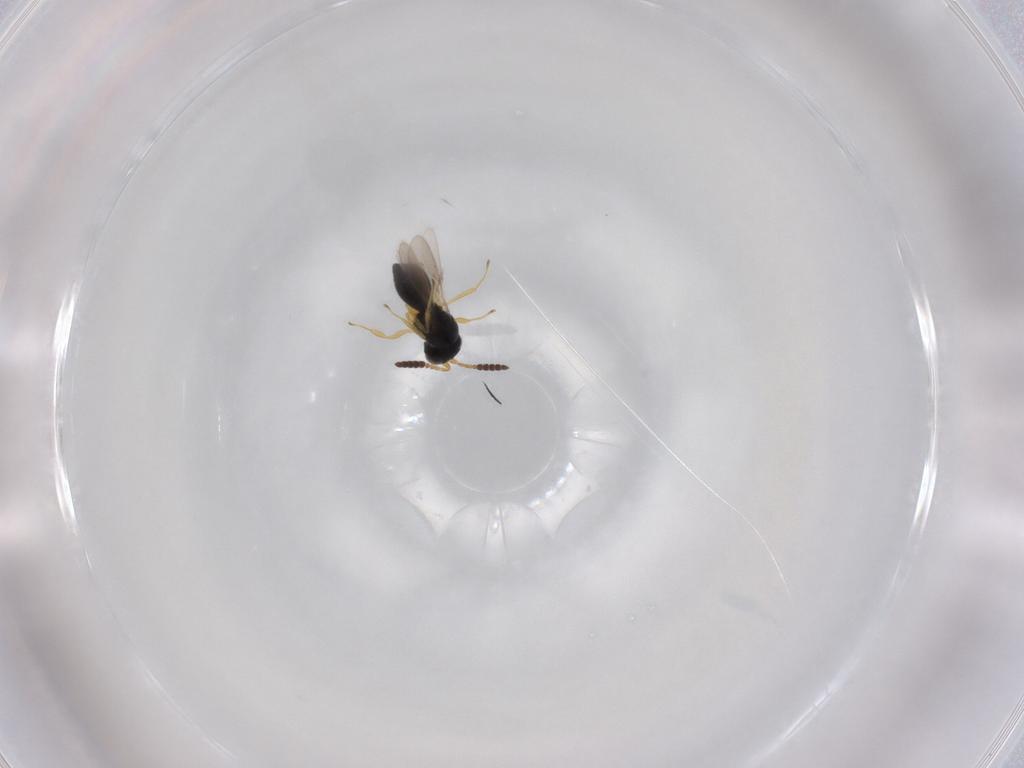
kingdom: Animalia
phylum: Arthropoda
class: Insecta
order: Hymenoptera
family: Scelionidae
